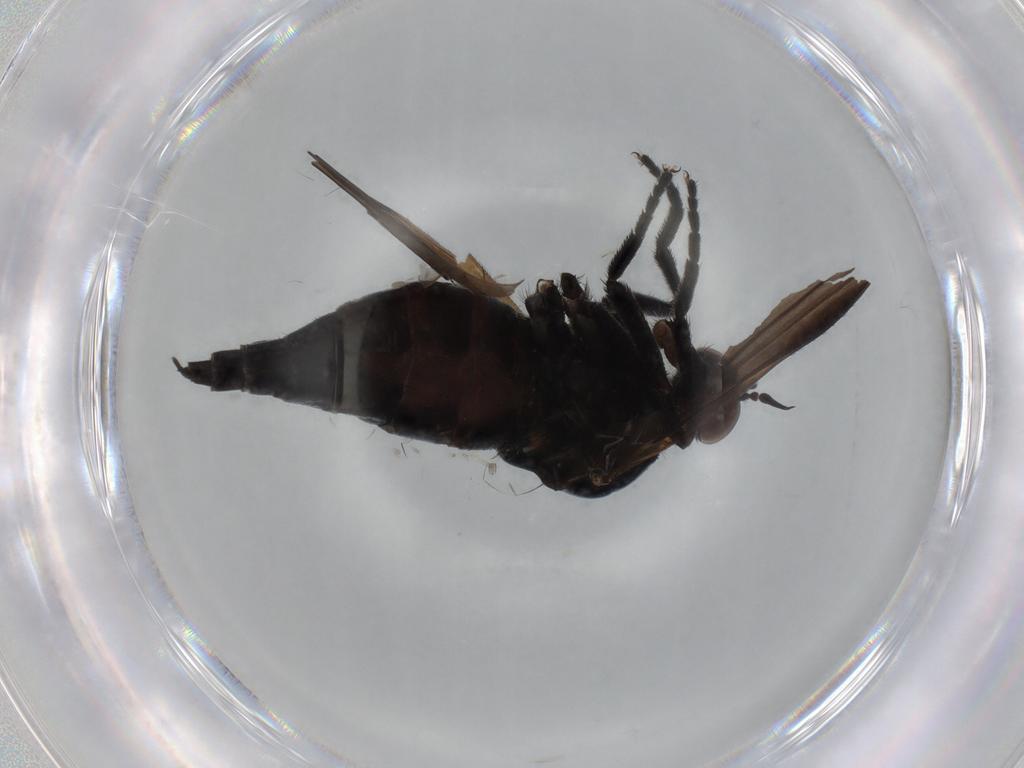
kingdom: Animalia
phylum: Arthropoda
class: Insecta
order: Diptera
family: Empididae
